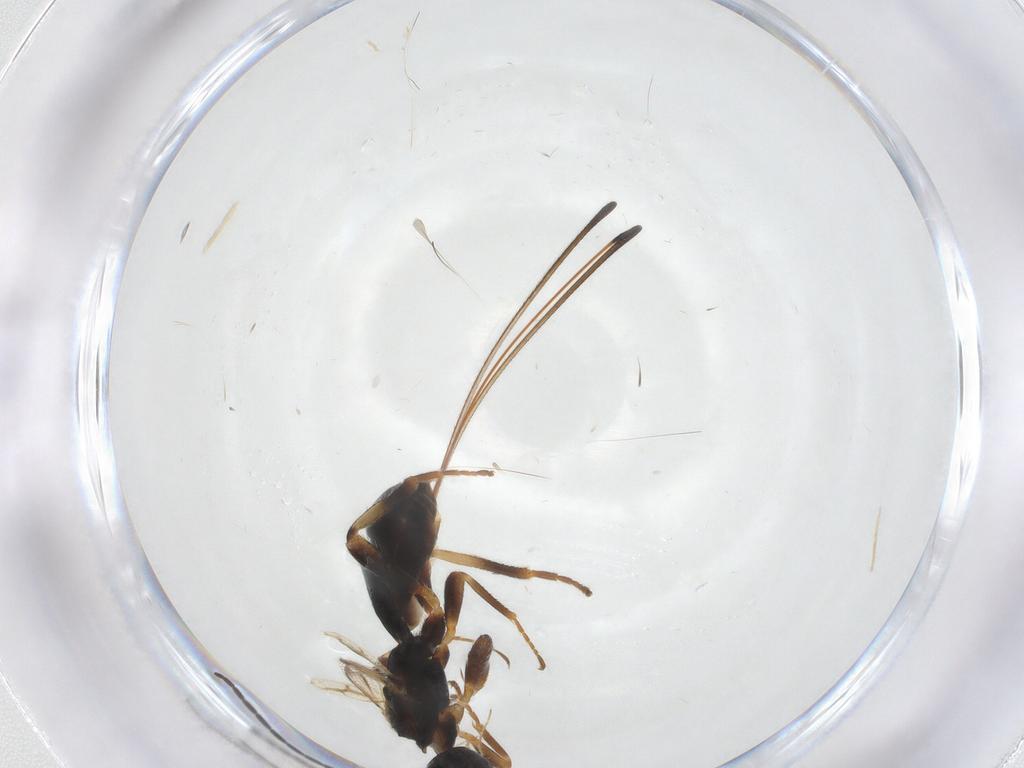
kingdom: Animalia
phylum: Arthropoda
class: Insecta
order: Hymenoptera
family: Braconidae
